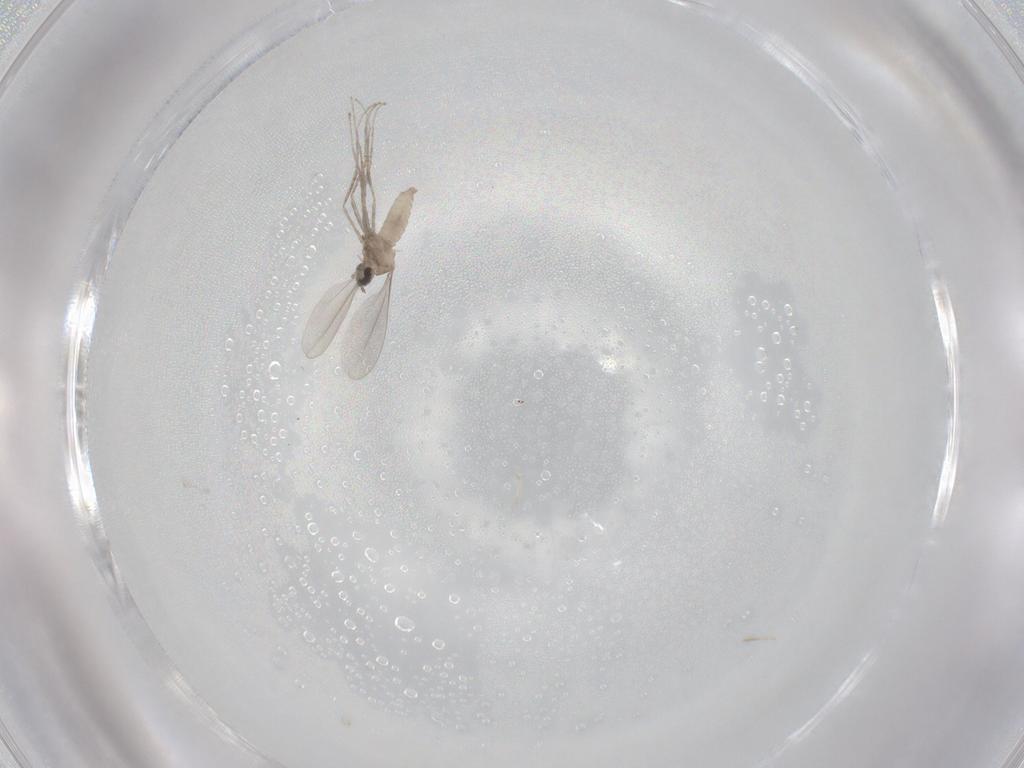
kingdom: Animalia
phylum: Arthropoda
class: Insecta
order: Diptera
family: Cecidomyiidae
